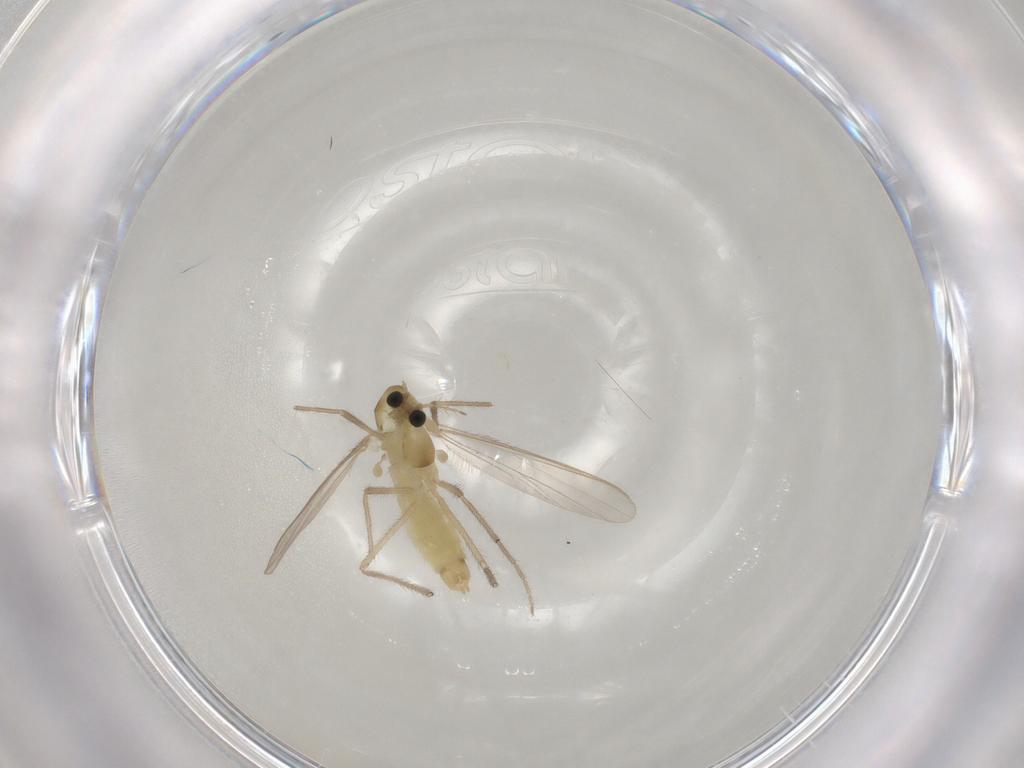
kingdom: Animalia
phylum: Arthropoda
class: Insecta
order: Diptera
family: Chironomidae
